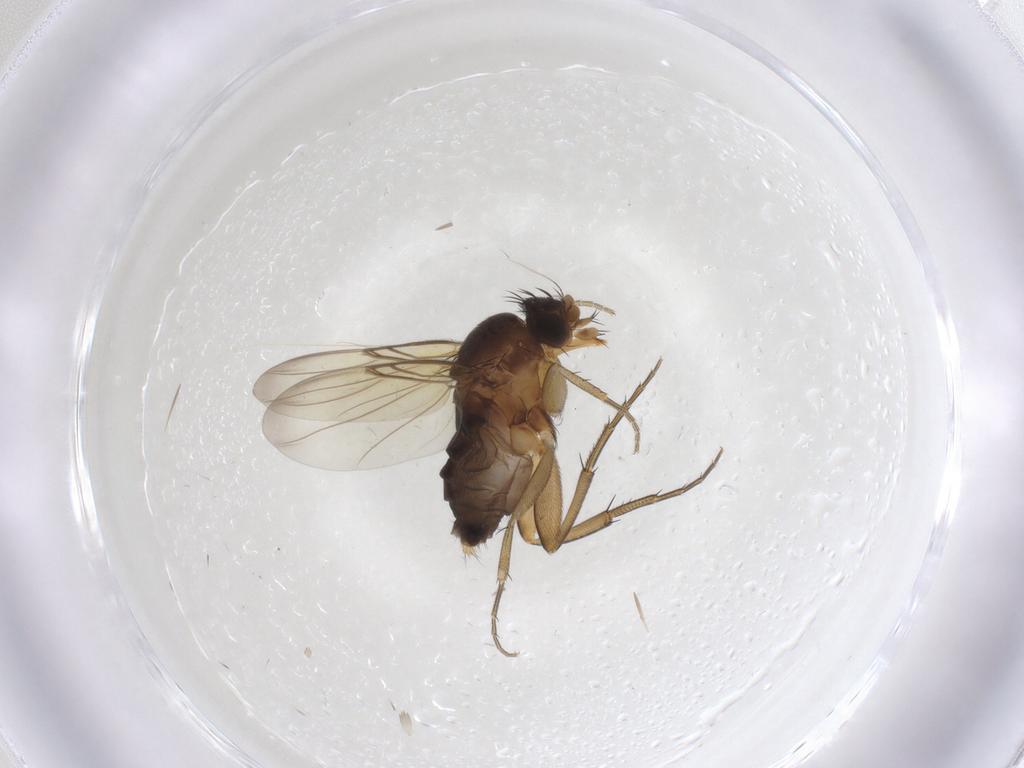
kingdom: Animalia
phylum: Arthropoda
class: Insecta
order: Diptera
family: Phoridae
